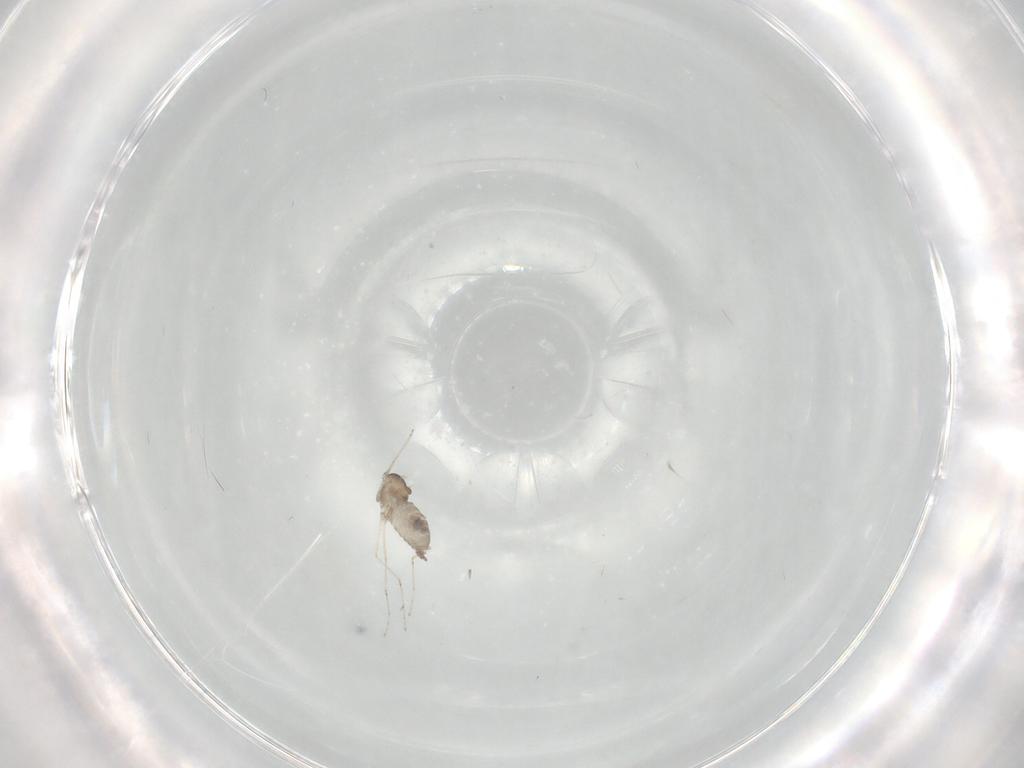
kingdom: Animalia
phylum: Arthropoda
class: Insecta
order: Diptera
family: Cecidomyiidae
